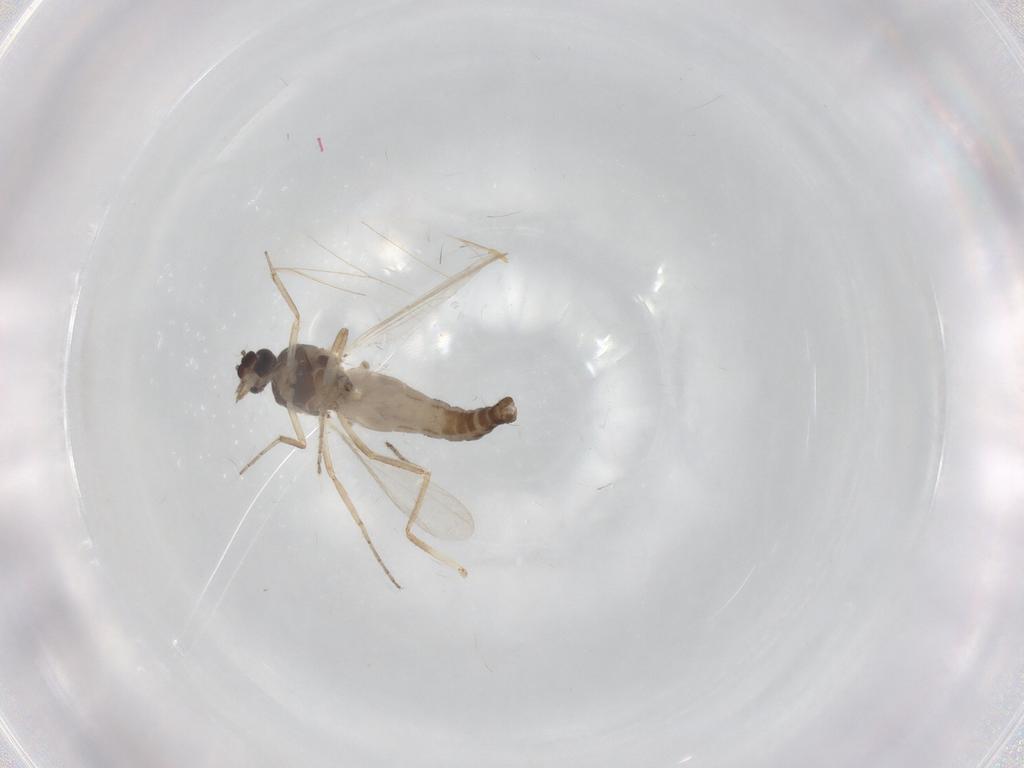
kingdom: Animalia
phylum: Arthropoda
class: Insecta
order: Diptera
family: Ceratopogonidae
